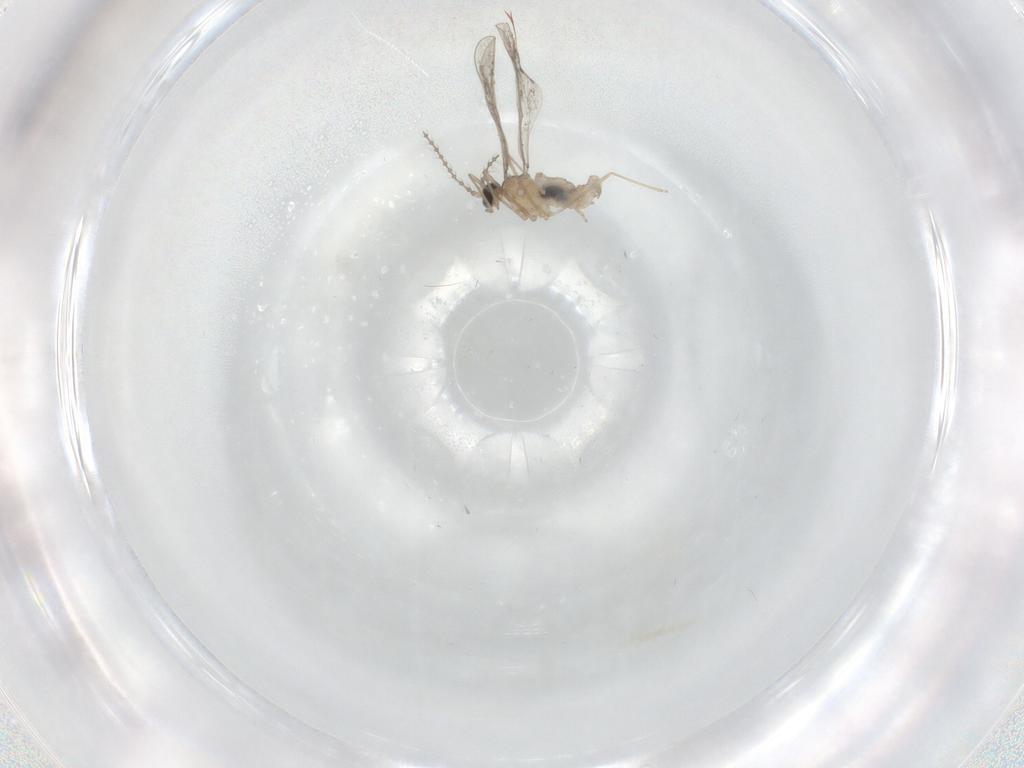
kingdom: Animalia
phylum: Arthropoda
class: Insecta
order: Diptera
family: Cecidomyiidae
